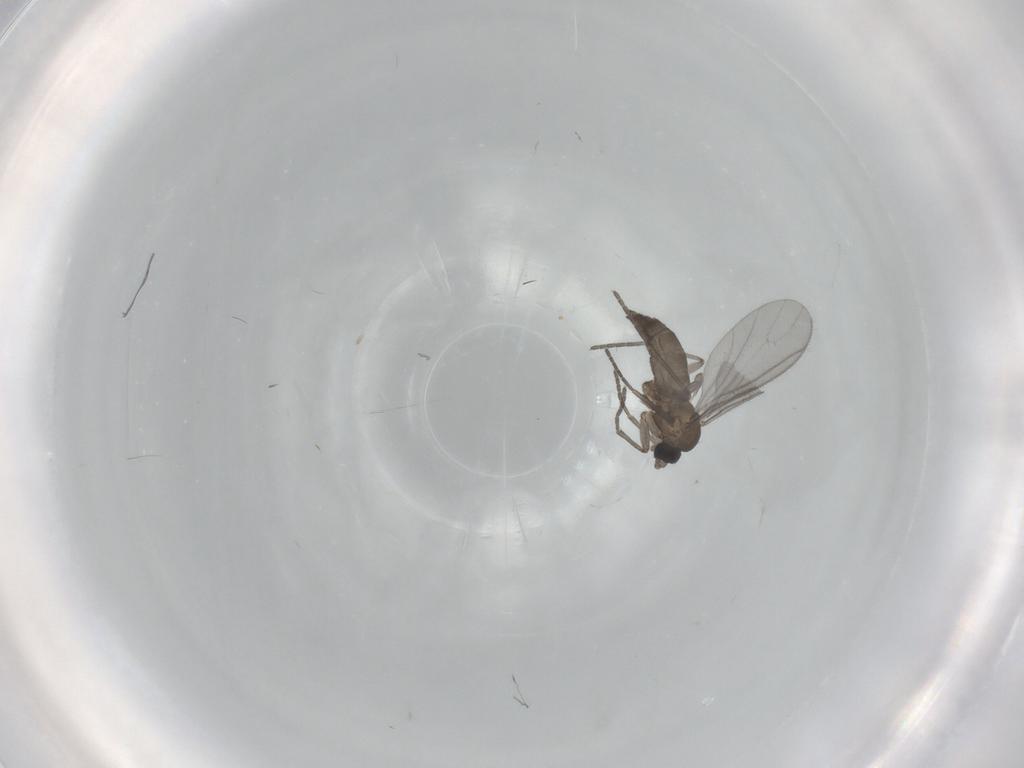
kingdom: Animalia
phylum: Arthropoda
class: Insecta
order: Diptera
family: Sciaridae
